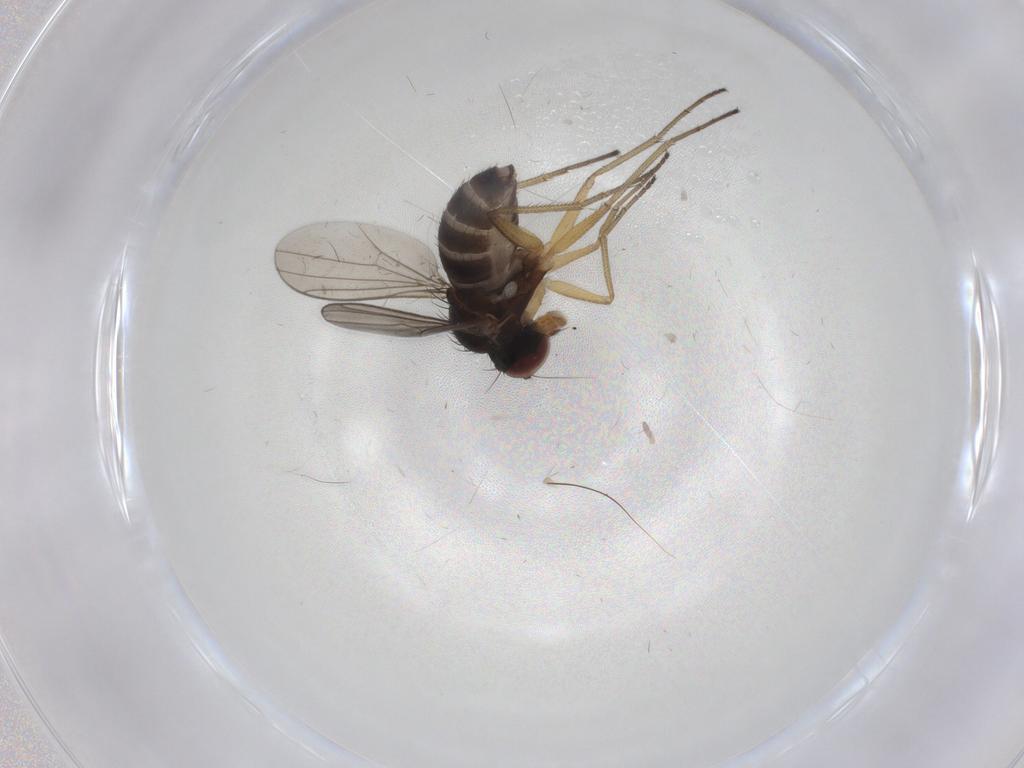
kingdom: Animalia
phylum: Arthropoda
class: Insecta
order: Diptera
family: Dolichopodidae
